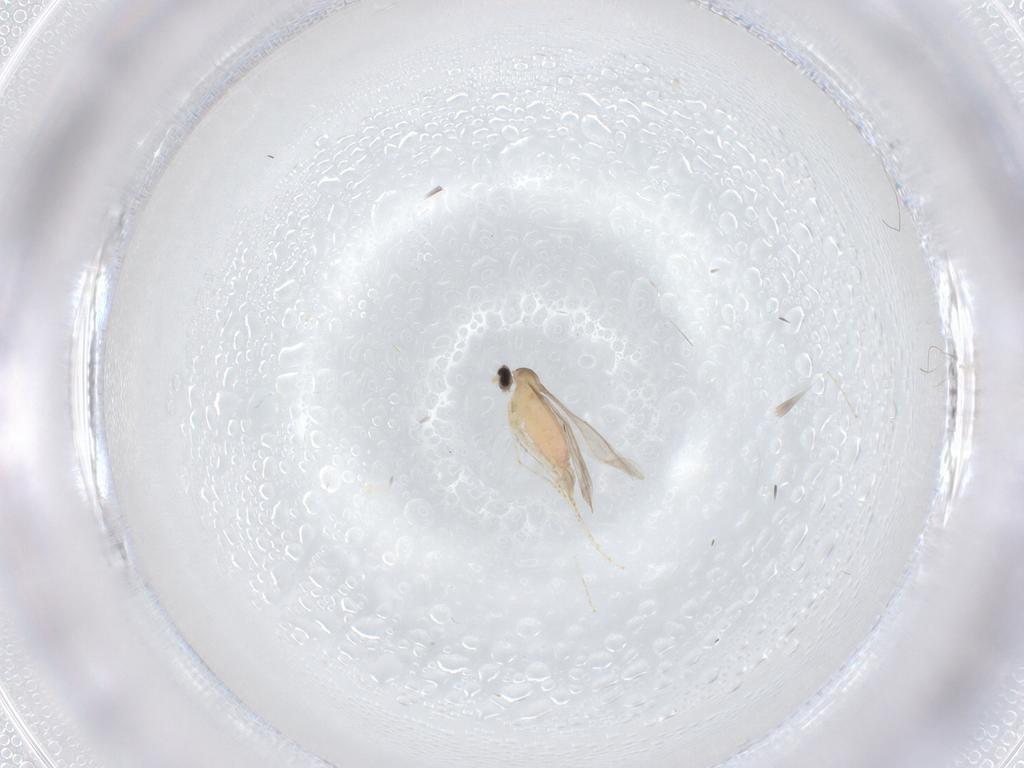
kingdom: Animalia
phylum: Arthropoda
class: Insecta
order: Diptera
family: Cecidomyiidae
